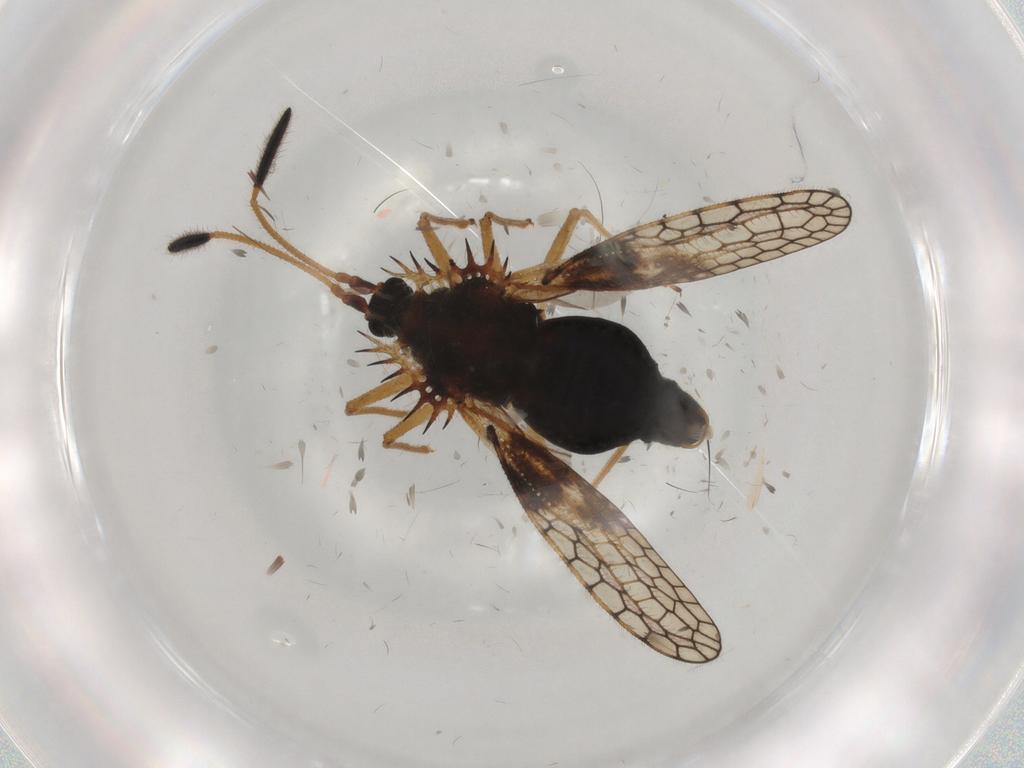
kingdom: Animalia
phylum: Arthropoda
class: Insecta
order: Hemiptera
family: Tingidae
